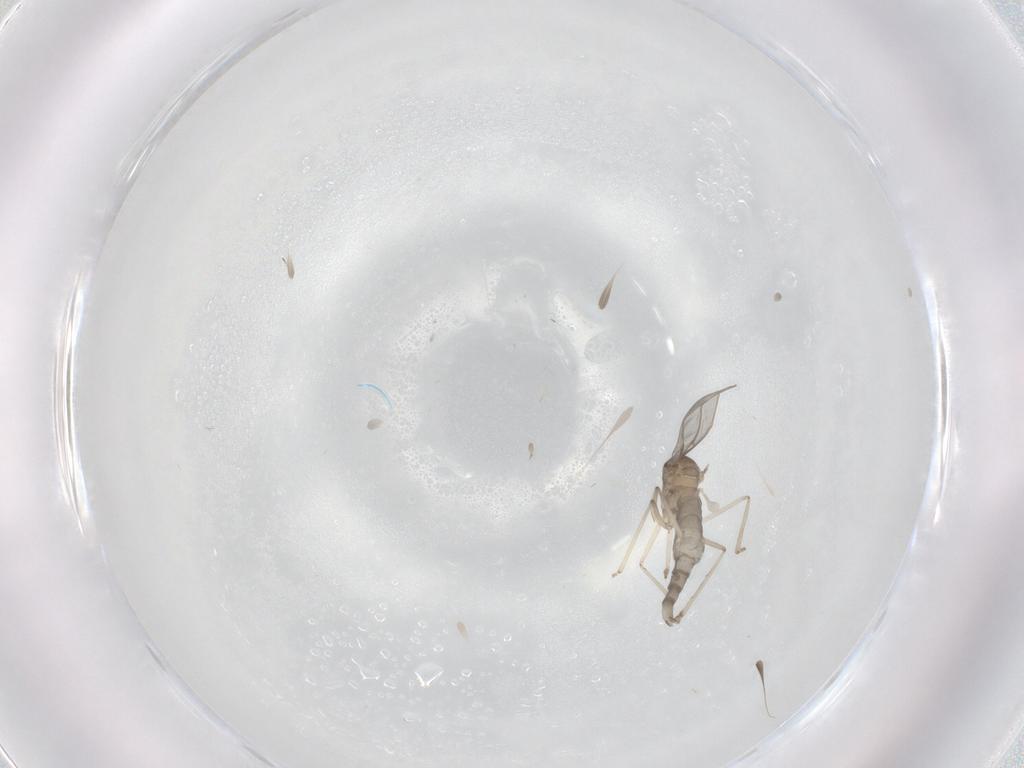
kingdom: Animalia
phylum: Arthropoda
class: Insecta
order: Diptera
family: Cecidomyiidae
